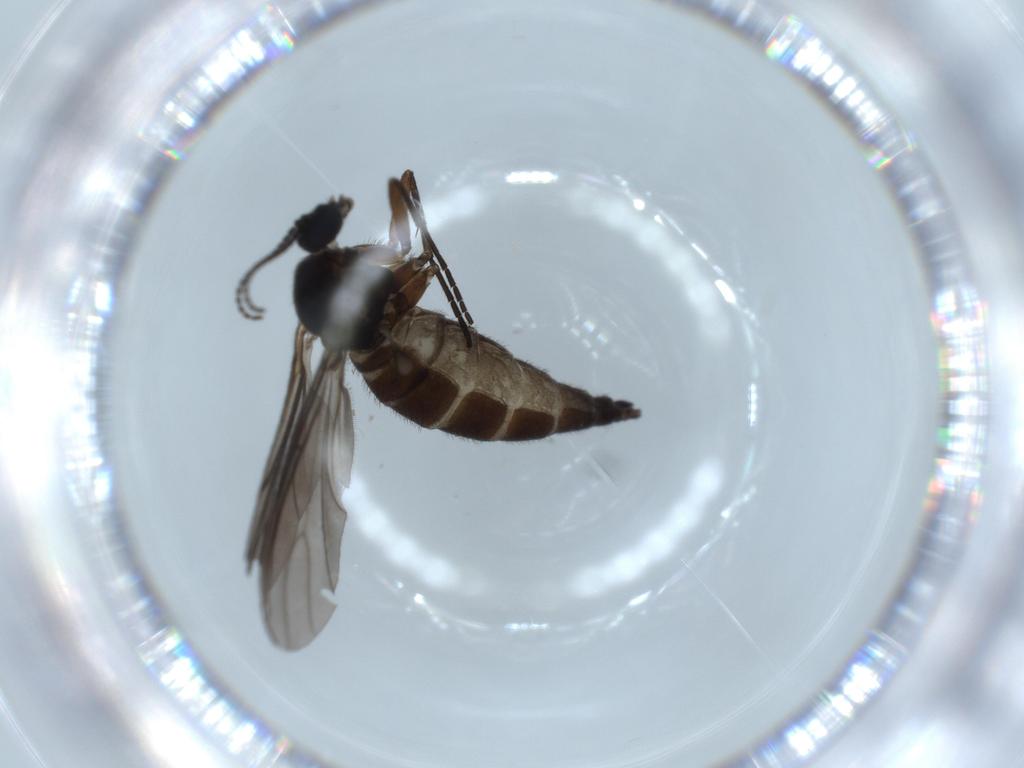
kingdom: Animalia
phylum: Arthropoda
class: Insecta
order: Diptera
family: Sciaridae
